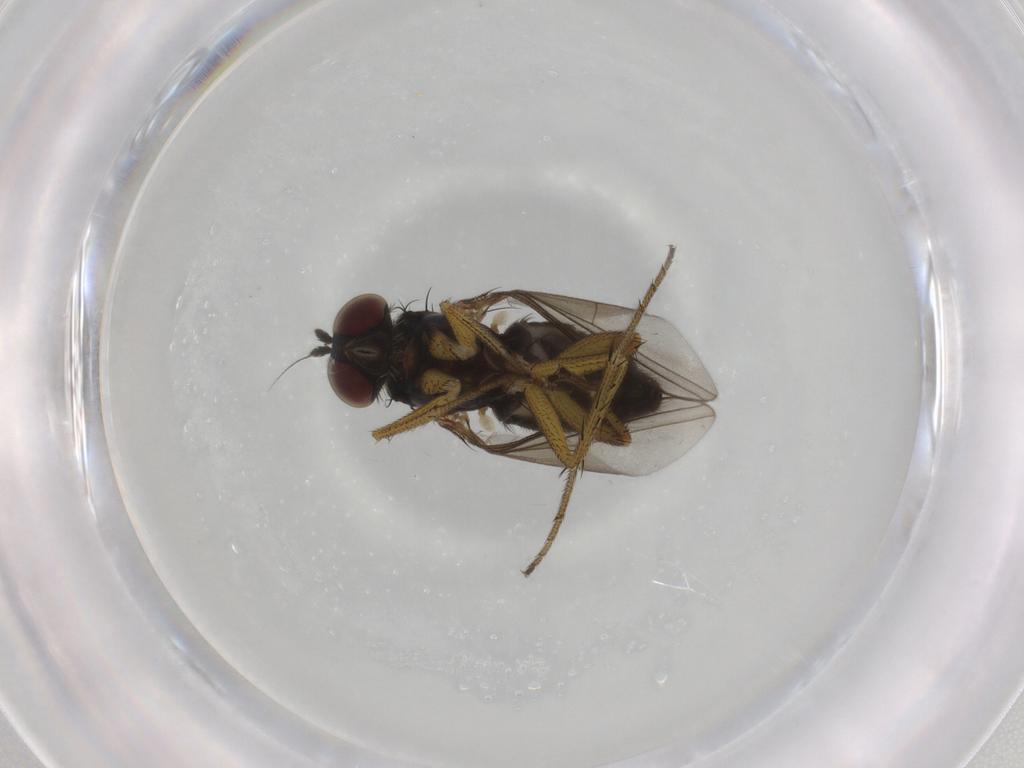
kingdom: Animalia
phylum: Arthropoda
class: Insecta
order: Diptera
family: Dolichopodidae
